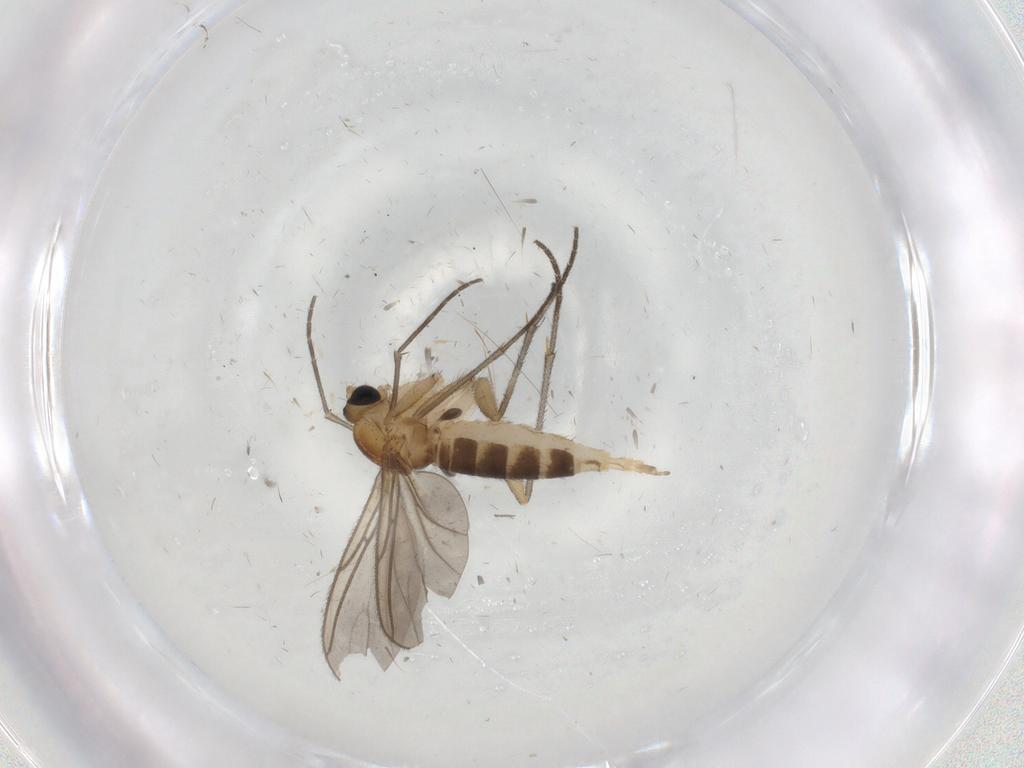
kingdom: Animalia
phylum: Arthropoda
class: Insecta
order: Diptera
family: Sciaridae
